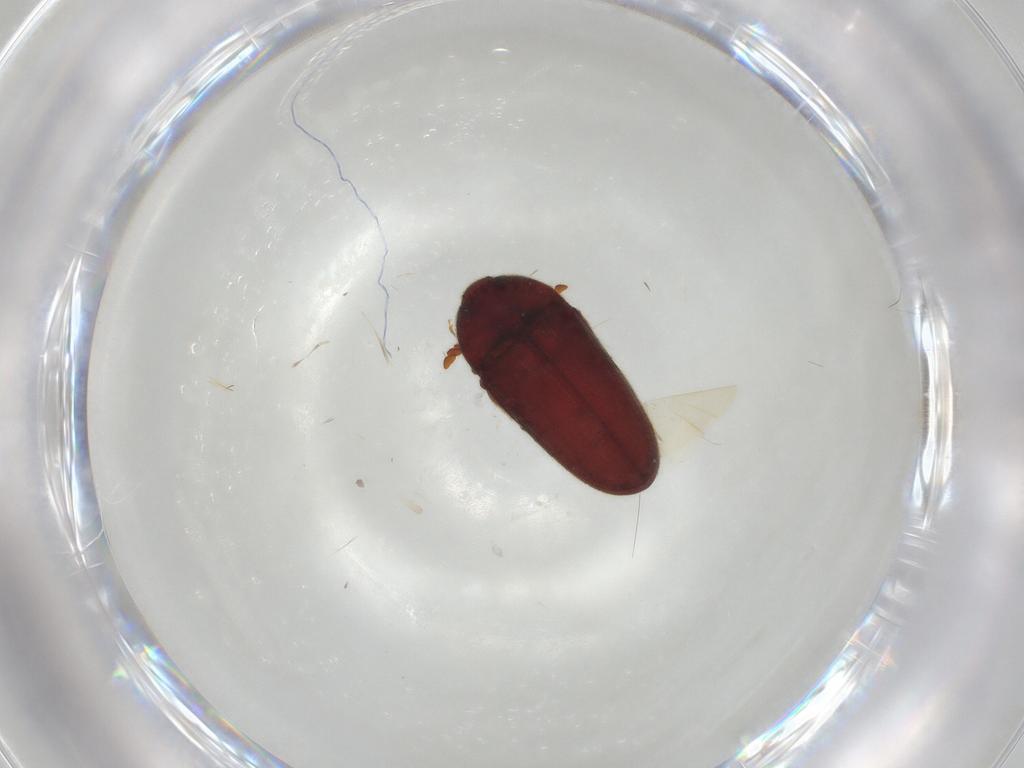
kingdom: Animalia
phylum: Arthropoda
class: Insecta
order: Coleoptera
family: Throscidae
